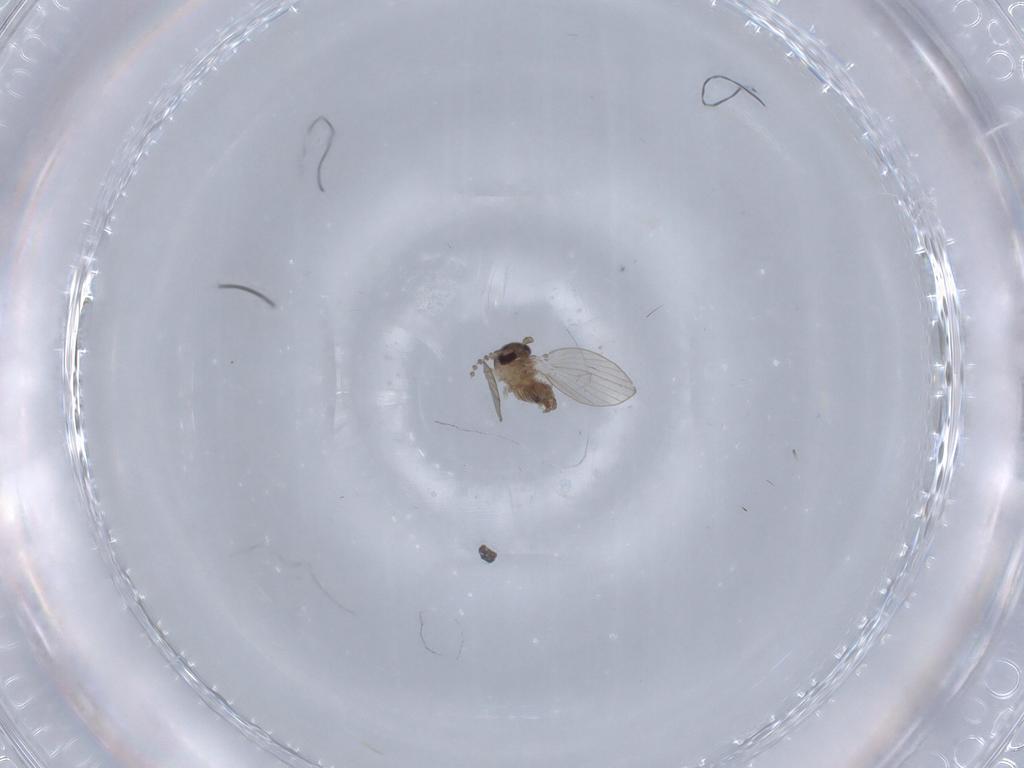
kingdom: Animalia
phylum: Arthropoda
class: Insecta
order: Diptera
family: Psychodidae
